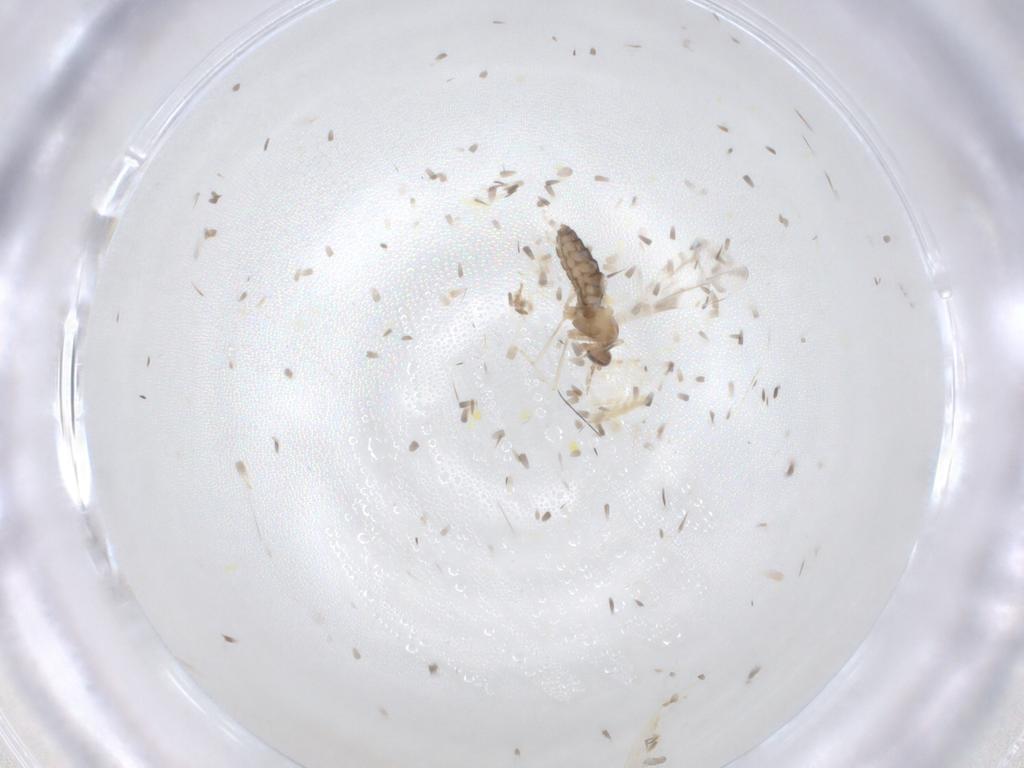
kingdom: Animalia
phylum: Arthropoda
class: Insecta
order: Diptera
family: Psychodidae
